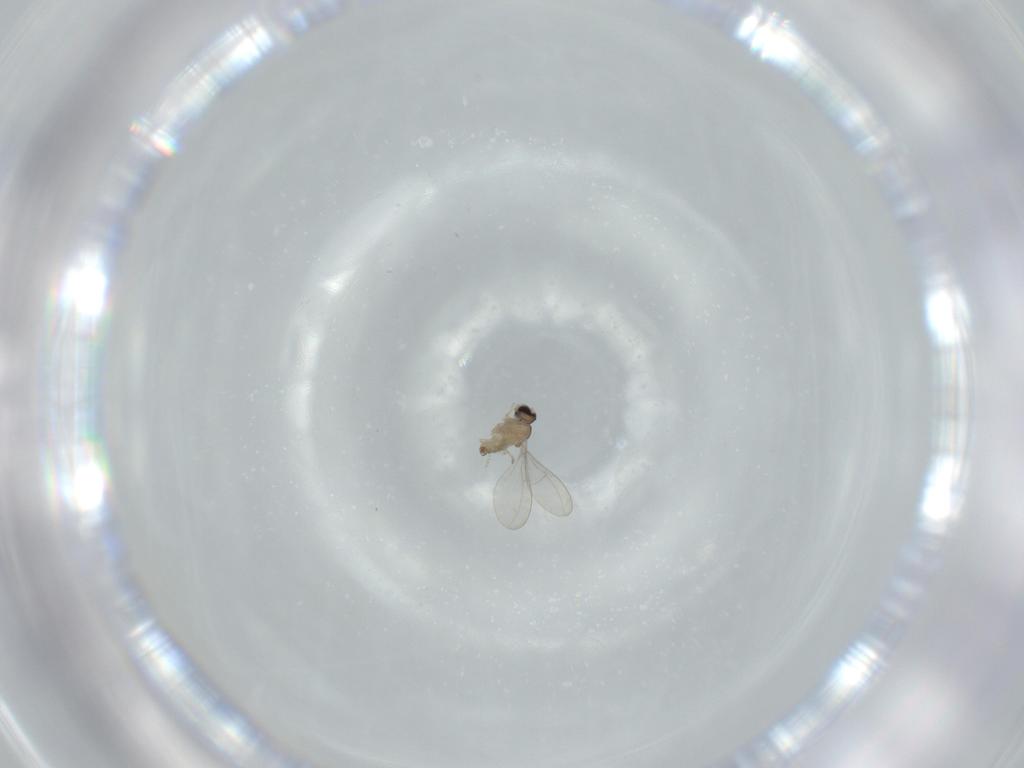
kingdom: Animalia
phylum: Arthropoda
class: Insecta
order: Diptera
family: Cecidomyiidae
